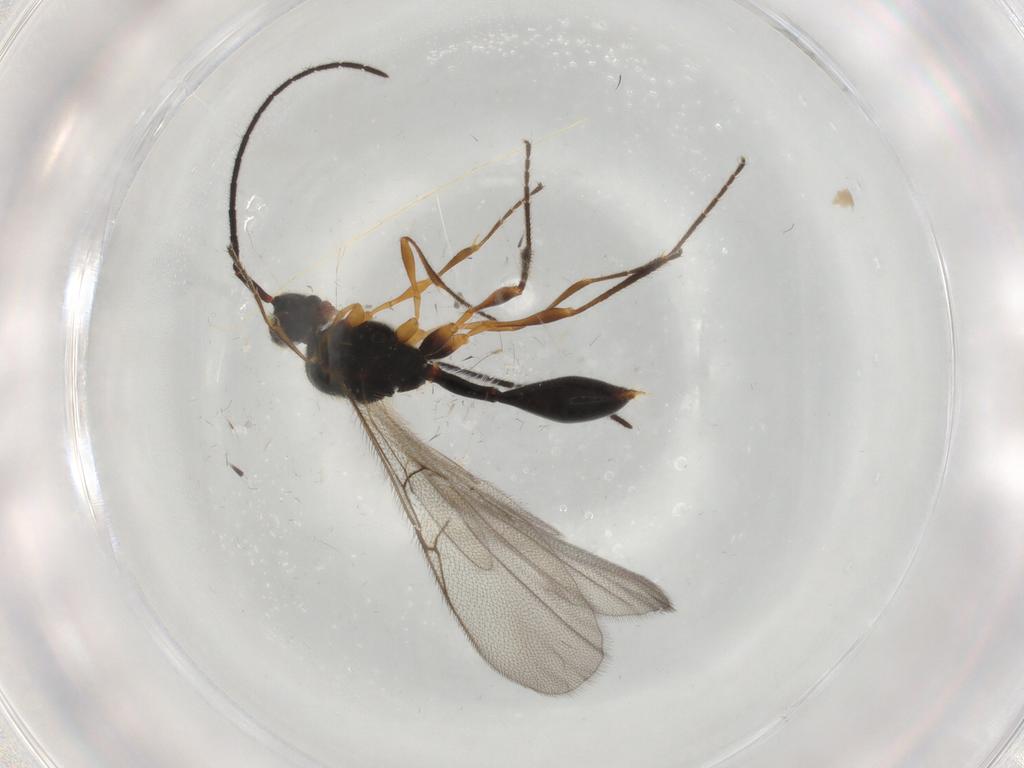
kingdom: Animalia
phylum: Arthropoda
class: Insecta
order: Hymenoptera
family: Diapriidae
